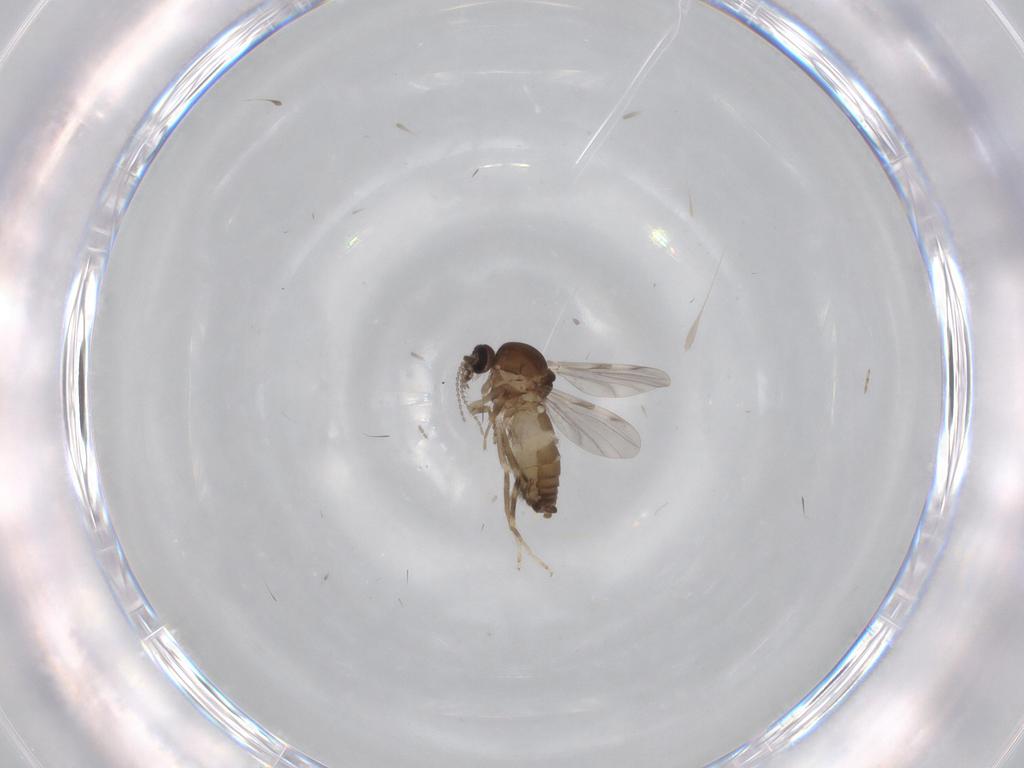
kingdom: Animalia
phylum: Arthropoda
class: Insecta
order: Diptera
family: Ceratopogonidae
